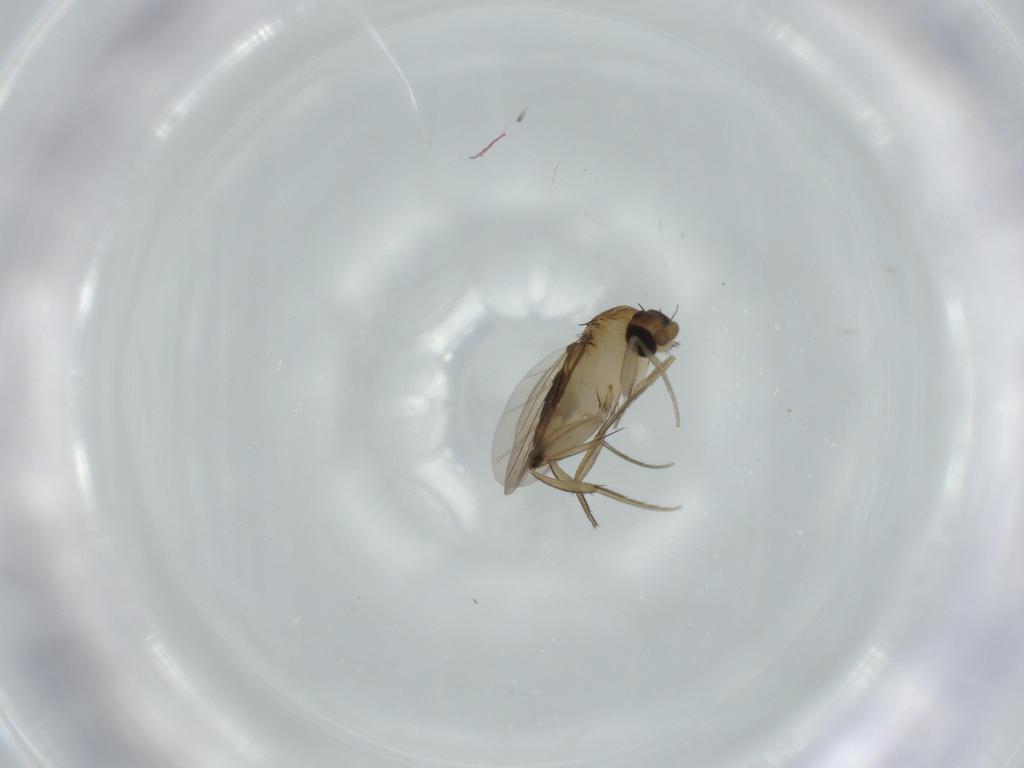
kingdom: Animalia
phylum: Arthropoda
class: Insecta
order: Diptera
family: Phoridae
